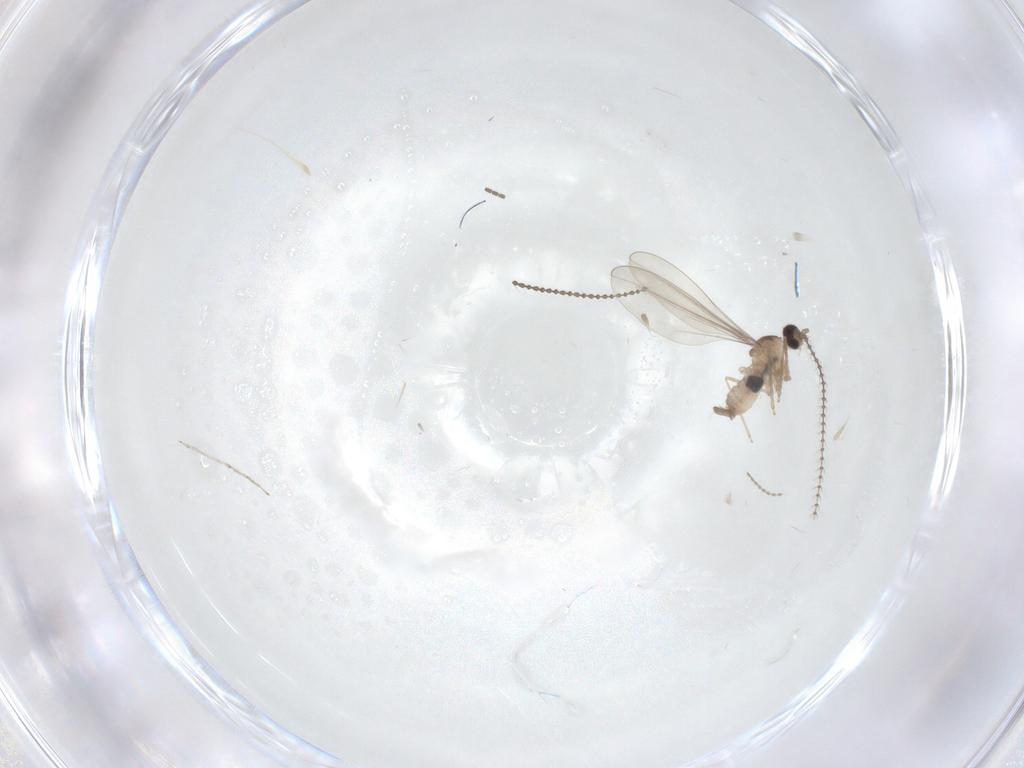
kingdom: Animalia
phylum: Arthropoda
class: Insecta
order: Diptera
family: Cecidomyiidae
